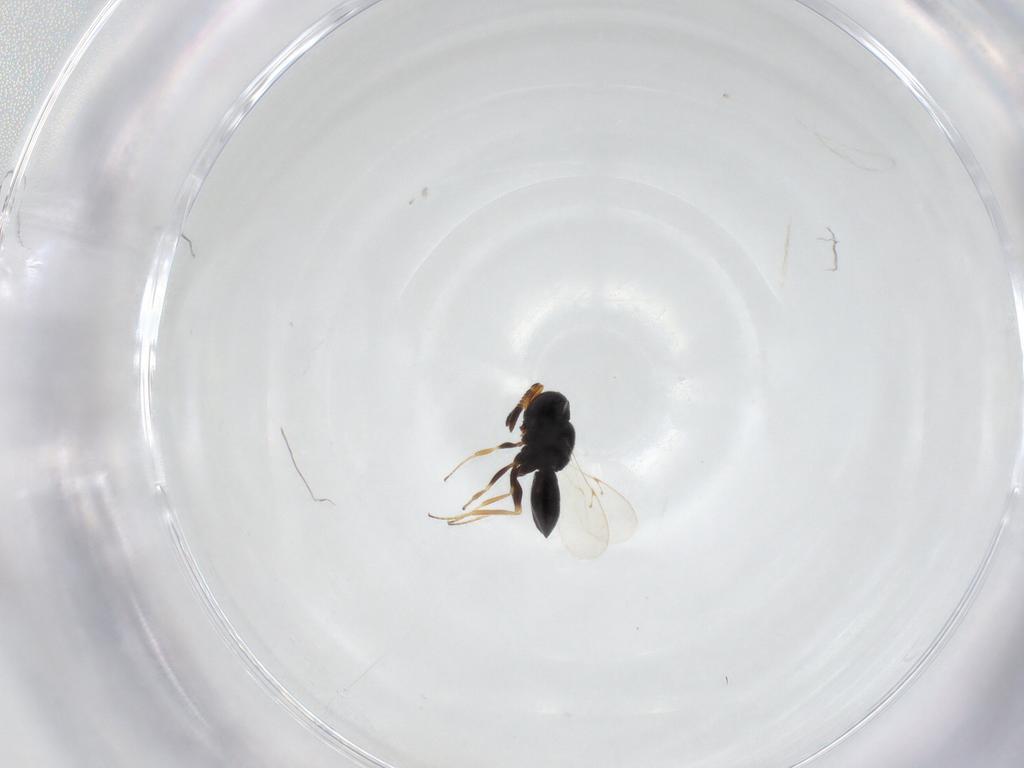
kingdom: Animalia
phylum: Arthropoda
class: Insecta
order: Hymenoptera
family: Scelionidae
